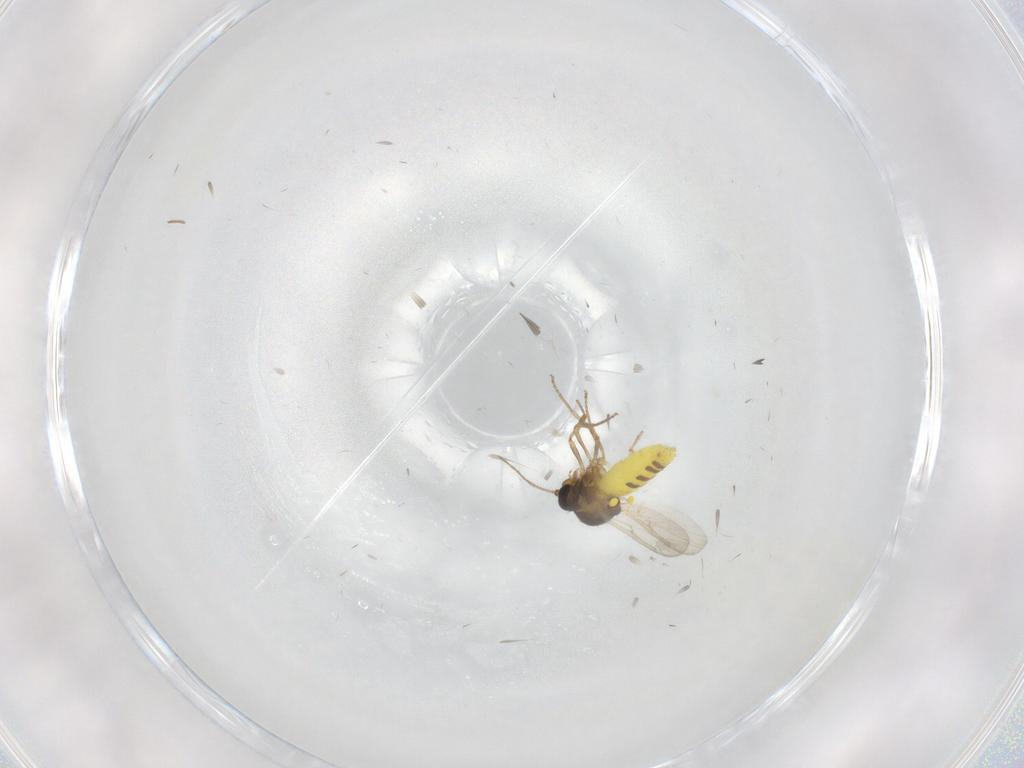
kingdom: Animalia
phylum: Arthropoda
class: Insecta
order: Diptera
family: Ceratopogonidae
